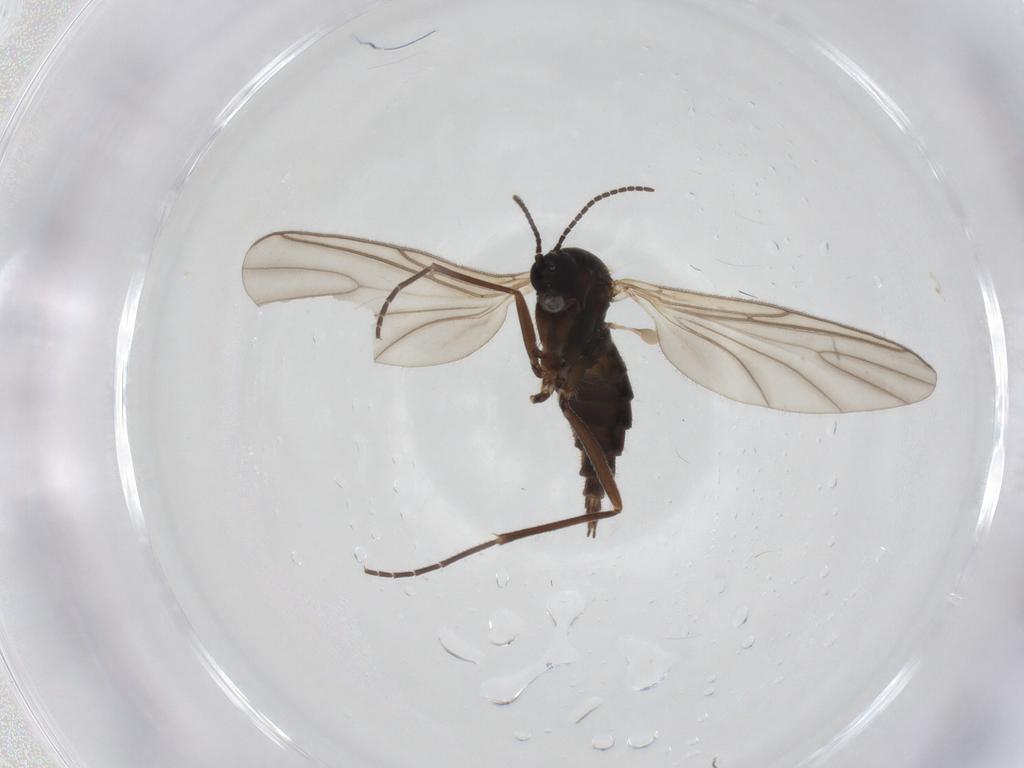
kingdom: Animalia
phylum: Arthropoda
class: Insecta
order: Diptera
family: Sciaridae
